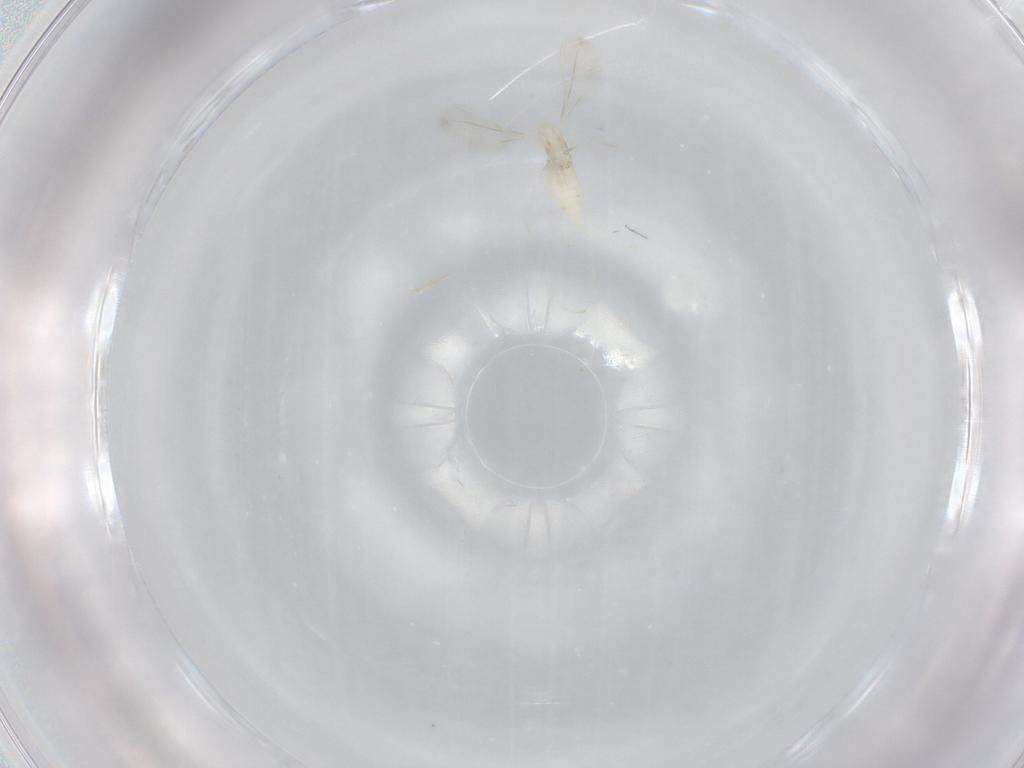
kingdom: Animalia
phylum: Arthropoda
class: Insecta
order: Diptera
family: Cecidomyiidae
